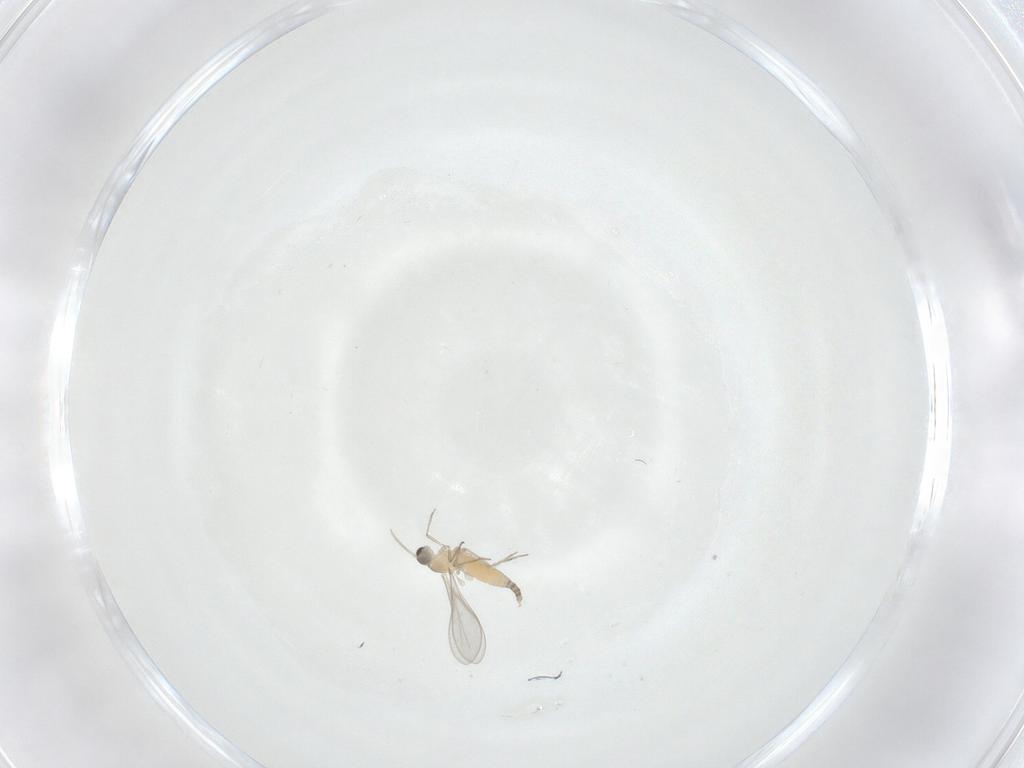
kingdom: Animalia
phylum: Arthropoda
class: Insecta
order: Diptera
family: Cecidomyiidae
